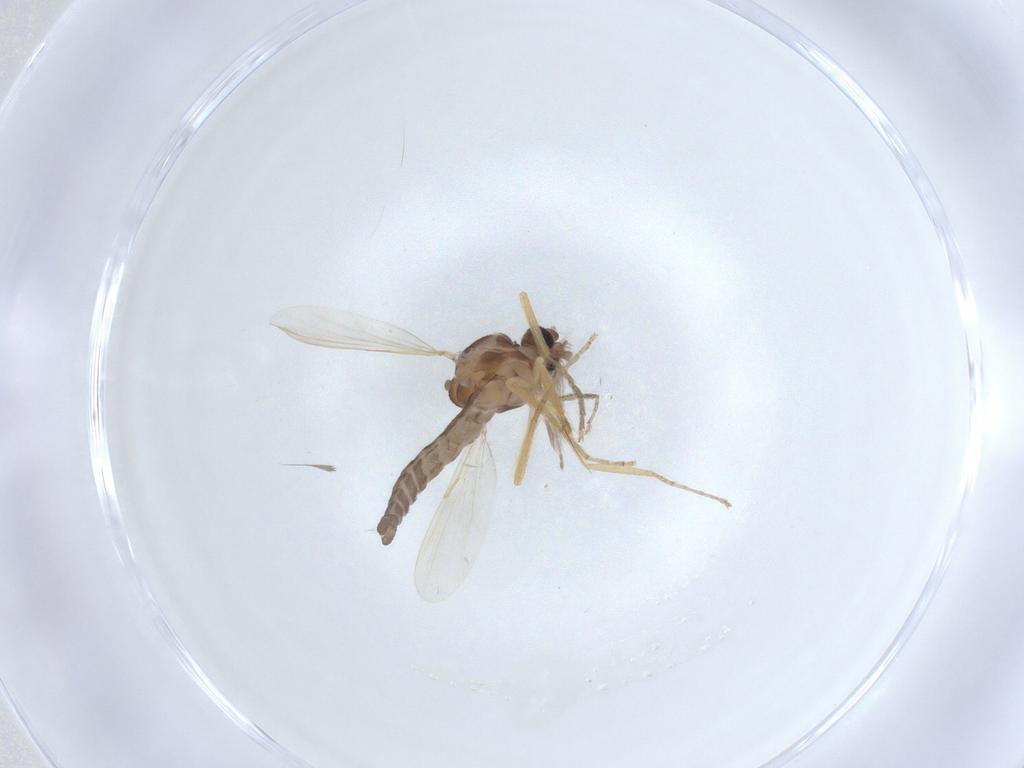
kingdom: Animalia
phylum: Arthropoda
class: Insecta
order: Diptera
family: Ceratopogonidae
